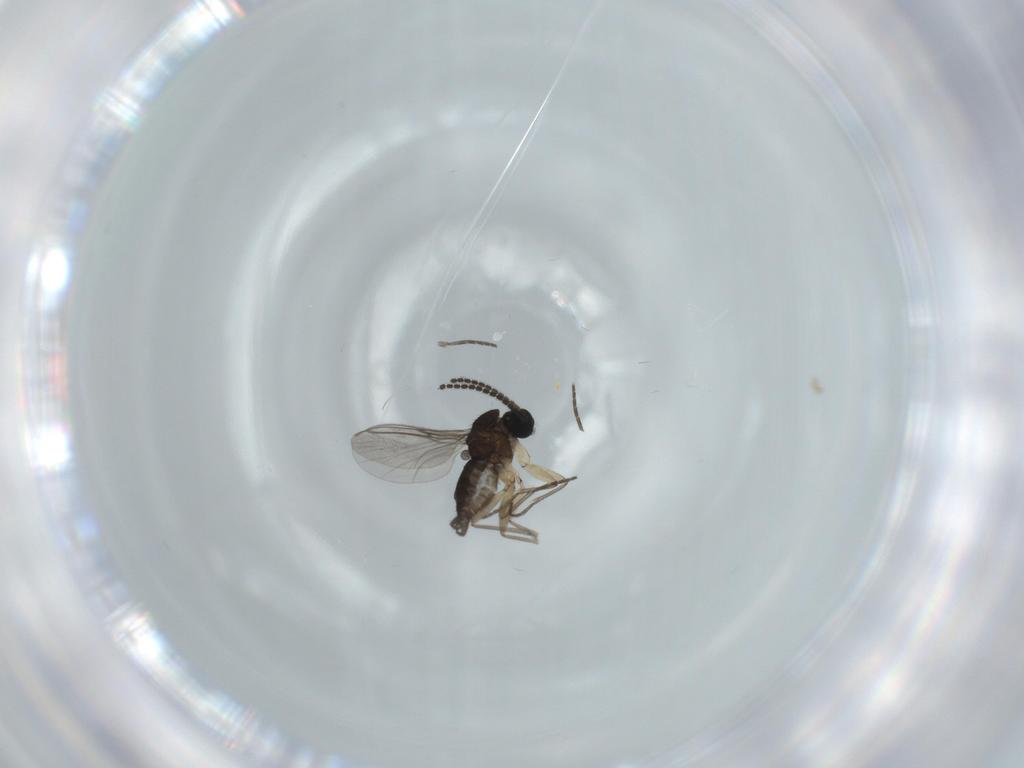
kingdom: Animalia
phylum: Arthropoda
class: Insecta
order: Diptera
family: Sciaridae
